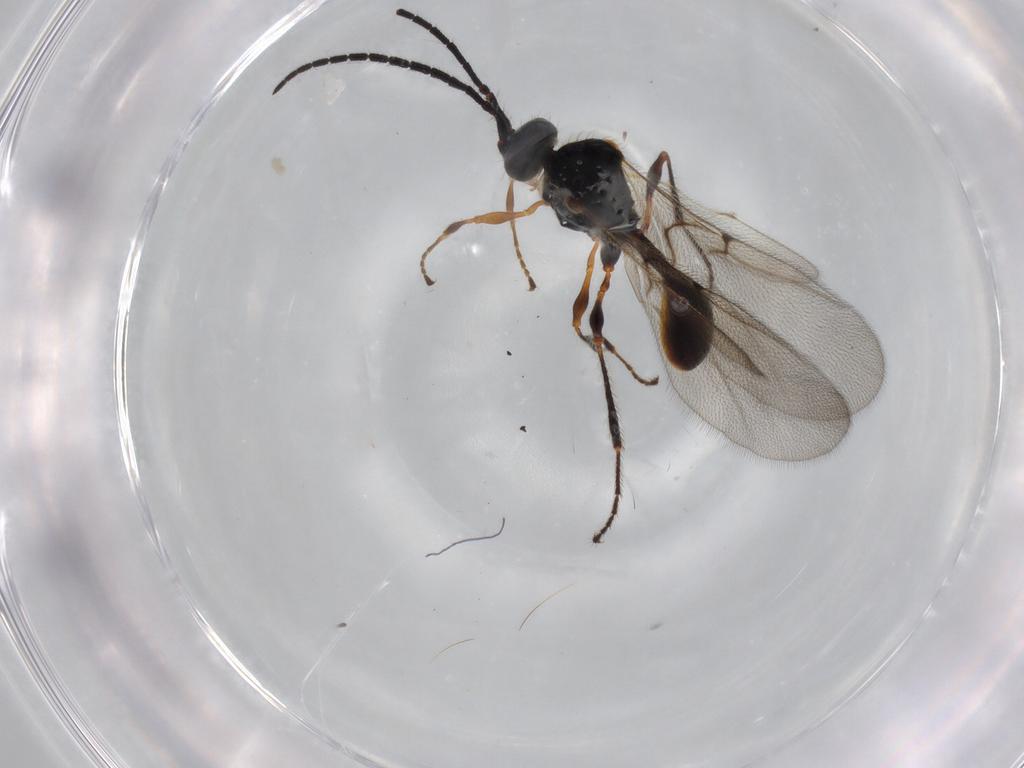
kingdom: Animalia
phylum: Arthropoda
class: Insecta
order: Hymenoptera
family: Diapriidae
